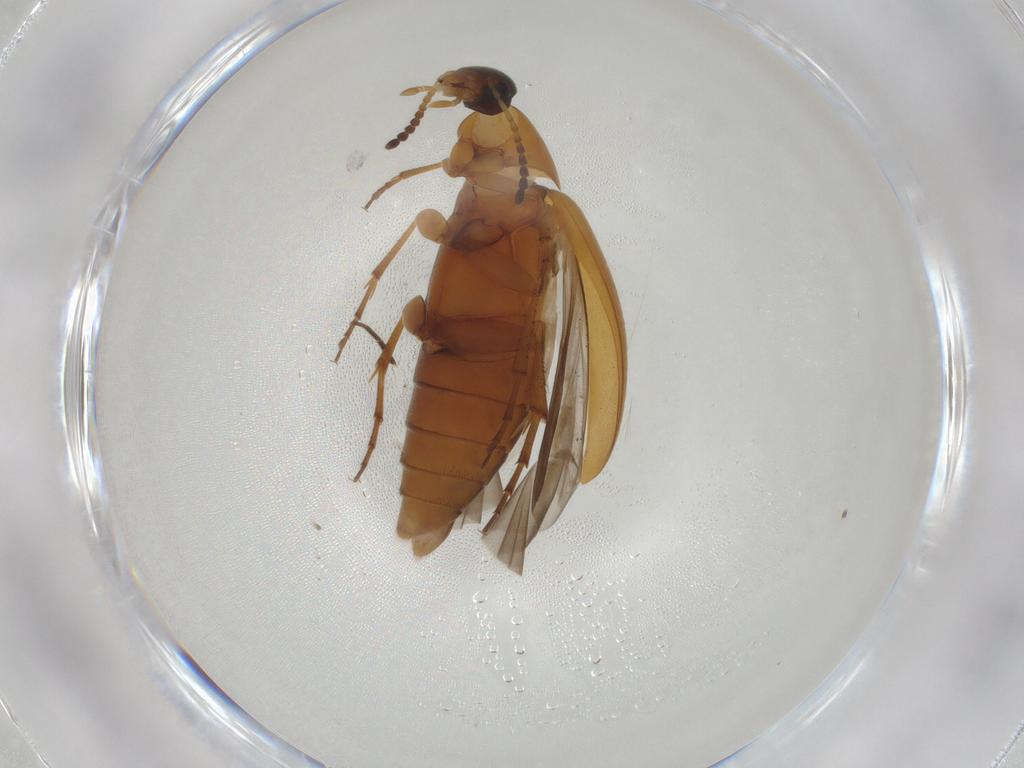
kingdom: Animalia
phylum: Arthropoda
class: Insecta
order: Coleoptera
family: Scraptiidae
